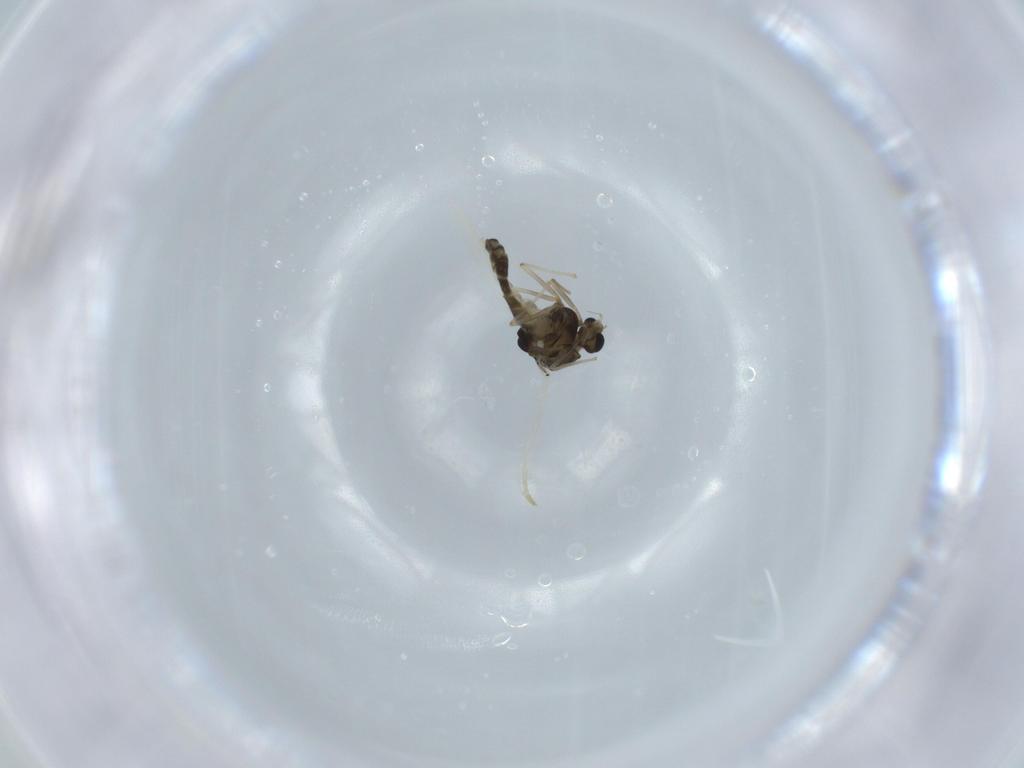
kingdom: Animalia
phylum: Arthropoda
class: Insecta
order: Diptera
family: Chironomidae
